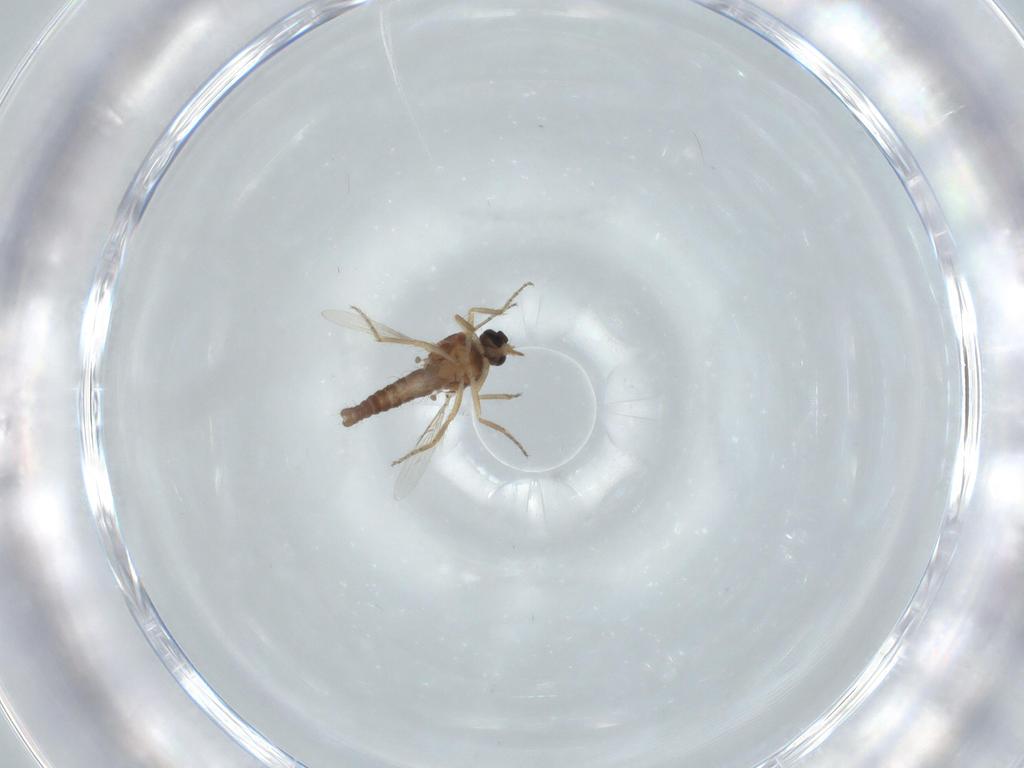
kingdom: Animalia
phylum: Arthropoda
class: Insecta
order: Diptera
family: Ceratopogonidae
